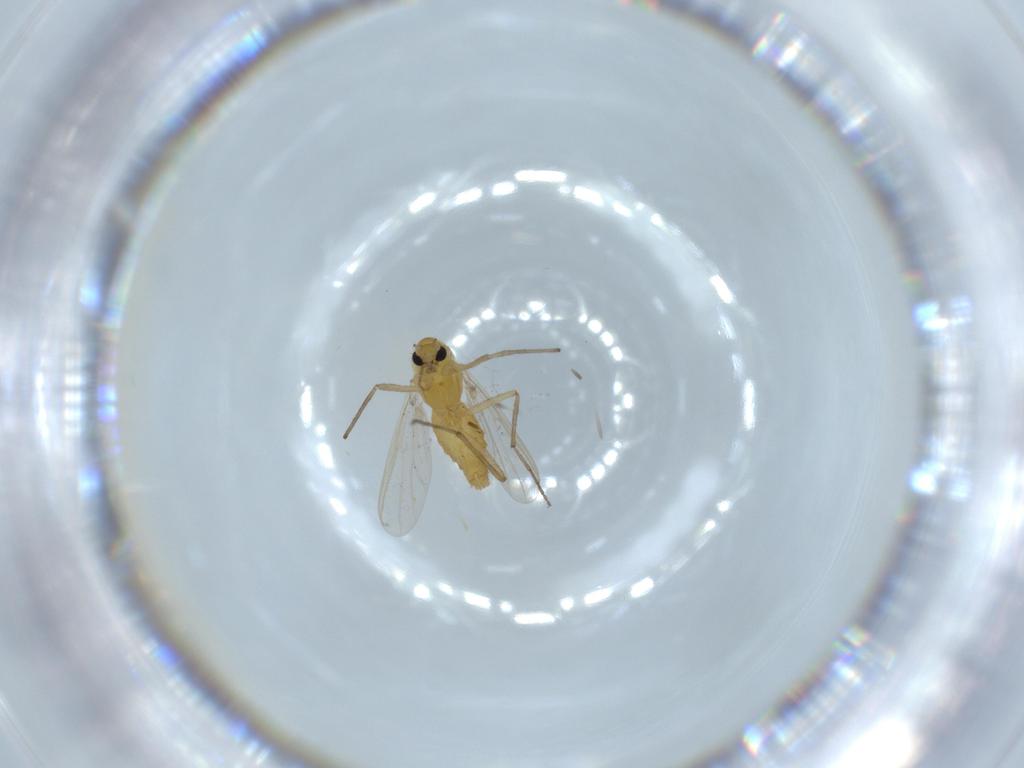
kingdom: Animalia
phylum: Arthropoda
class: Insecta
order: Diptera
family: Chironomidae
